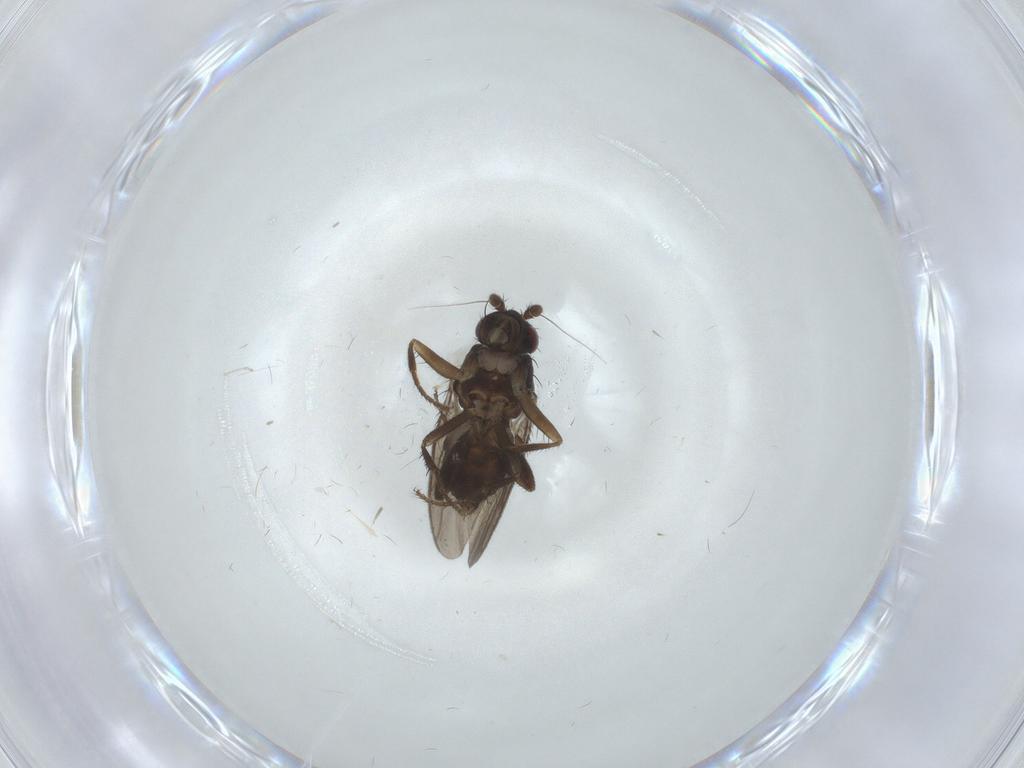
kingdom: Animalia
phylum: Arthropoda
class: Insecta
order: Diptera
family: Sphaeroceridae
